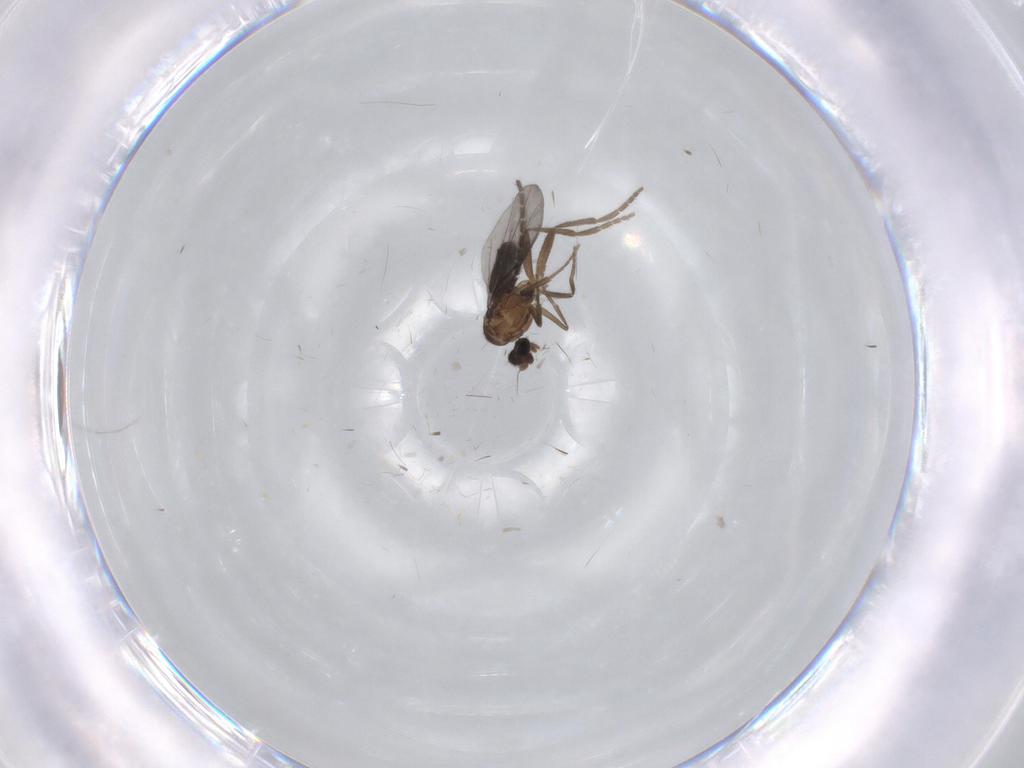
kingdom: Animalia
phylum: Arthropoda
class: Insecta
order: Diptera
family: Sciaridae
